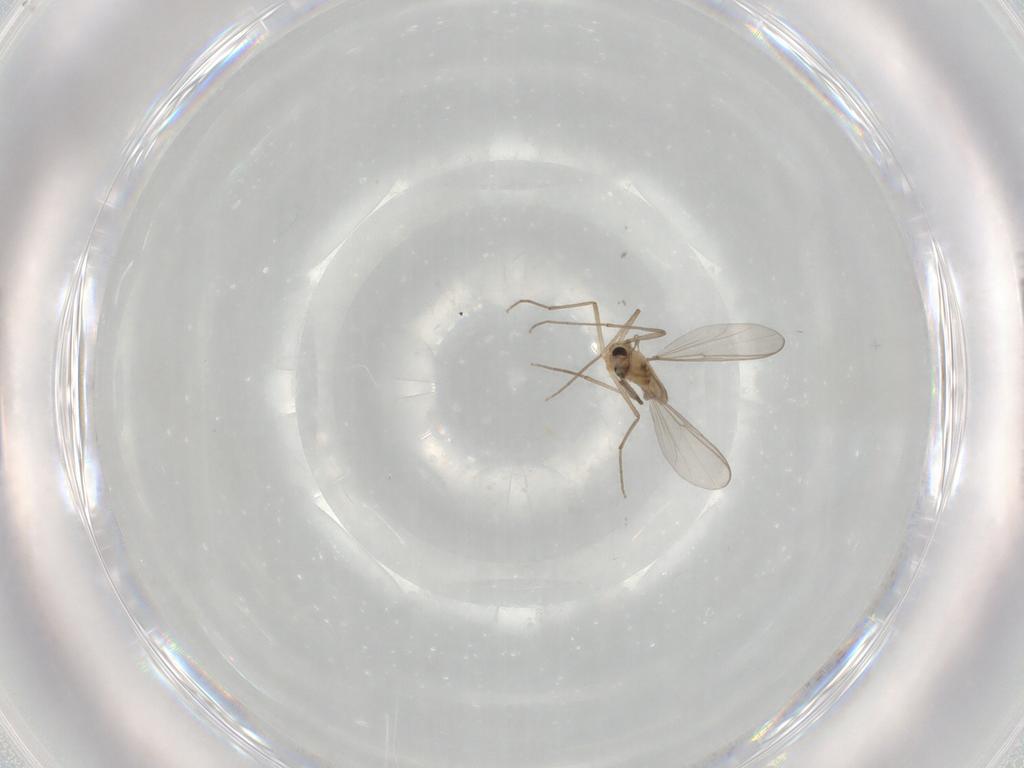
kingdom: Animalia
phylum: Arthropoda
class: Insecta
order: Diptera
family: Chironomidae
